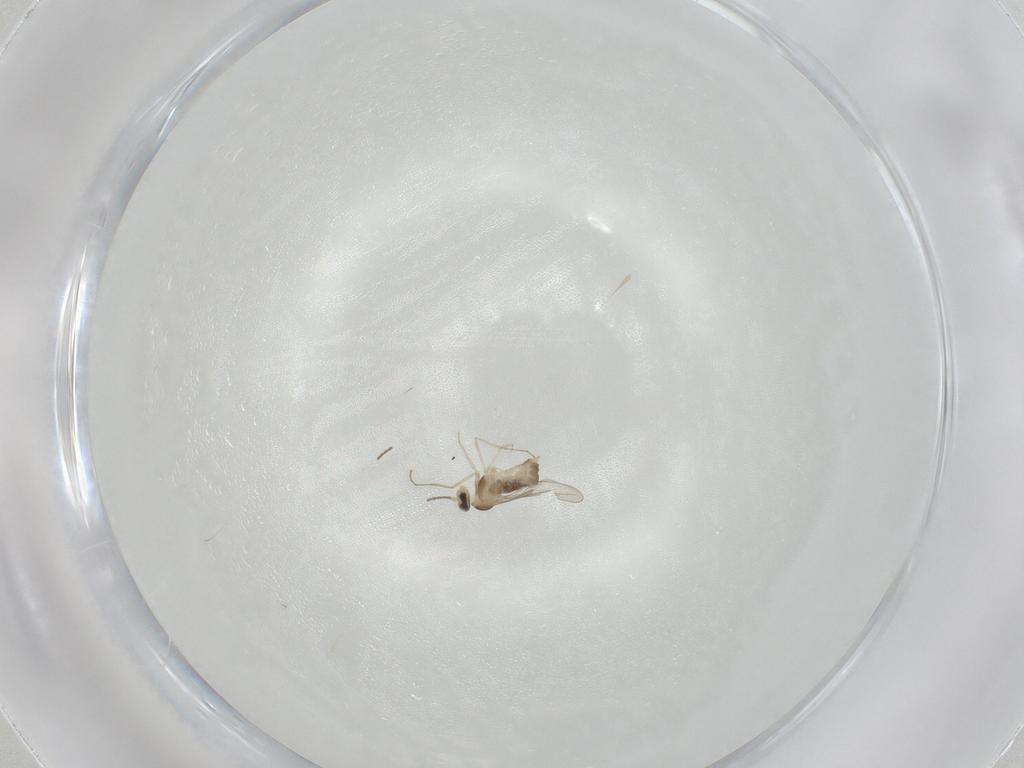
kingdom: Animalia
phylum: Arthropoda
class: Insecta
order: Diptera
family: Cecidomyiidae
